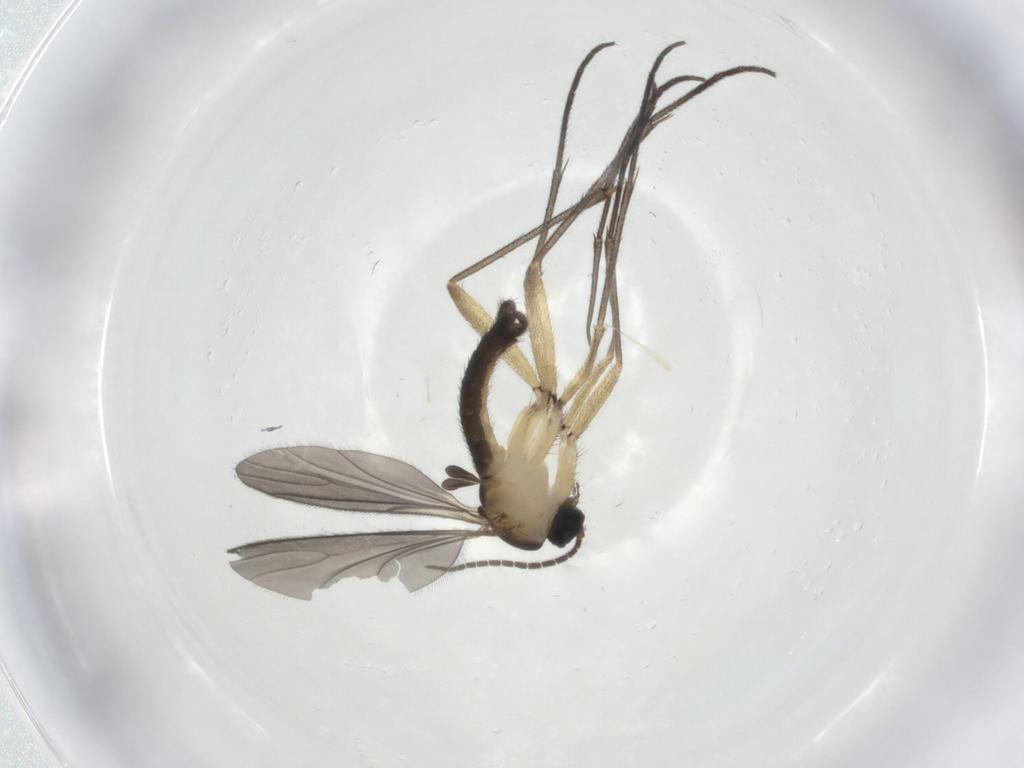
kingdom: Animalia
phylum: Arthropoda
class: Insecta
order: Diptera
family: Sciaridae
